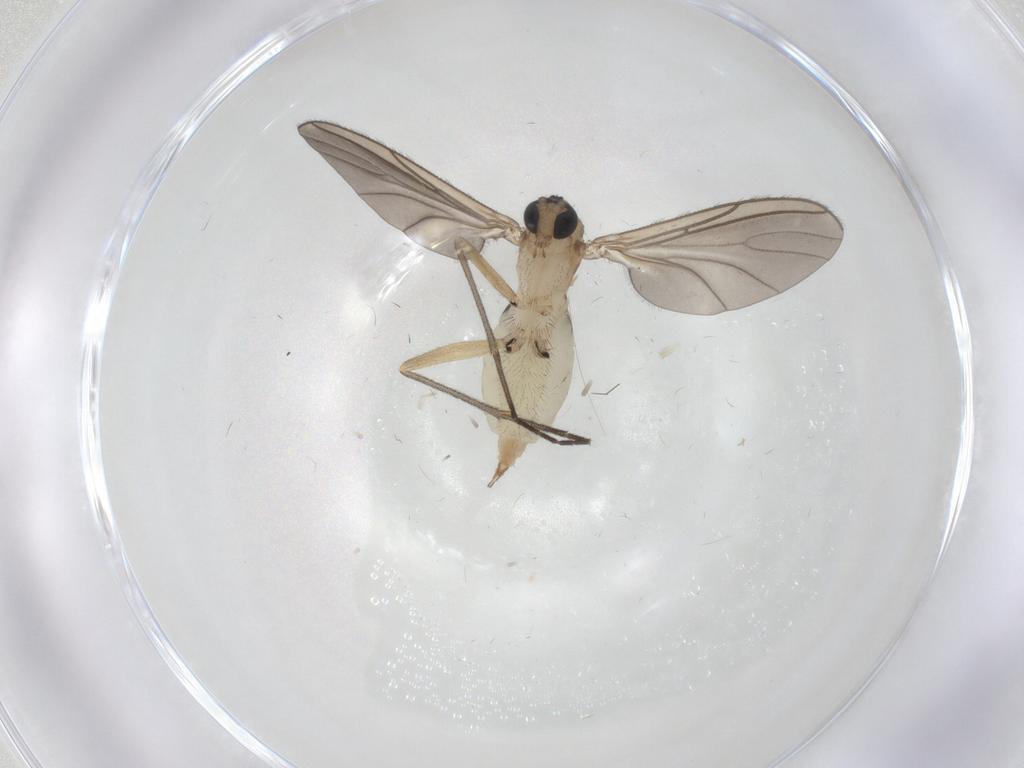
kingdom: Animalia
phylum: Arthropoda
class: Insecta
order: Diptera
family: Sciaridae
